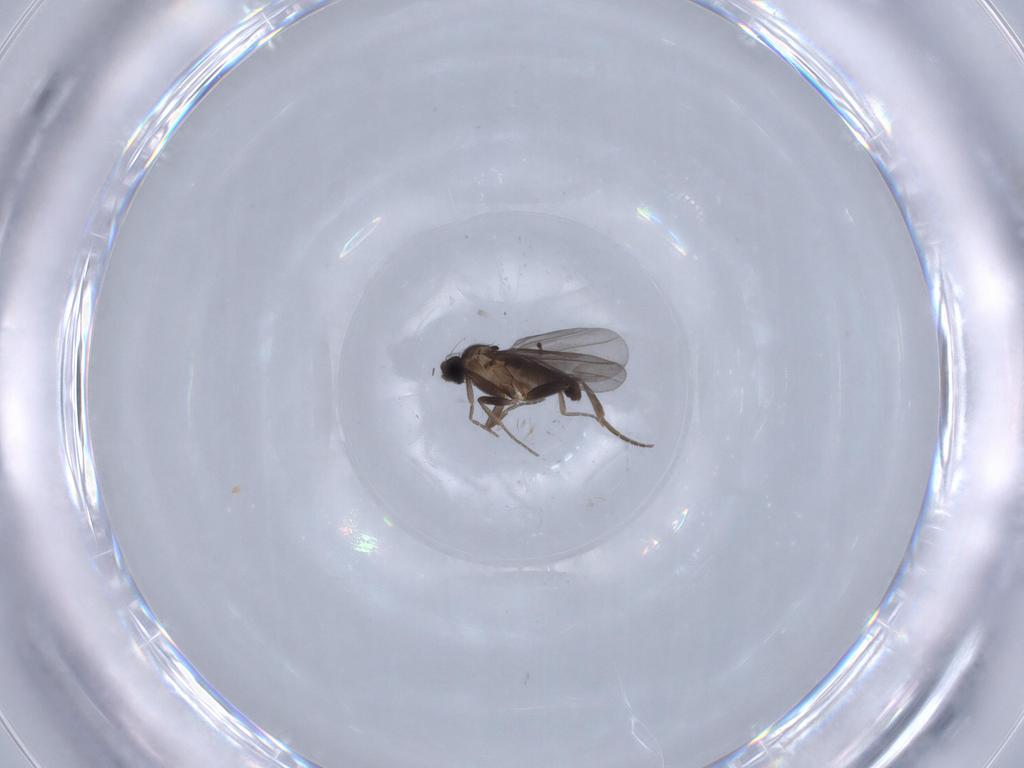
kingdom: Animalia
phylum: Arthropoda
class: Insecta
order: Diptera
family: Phoridae
